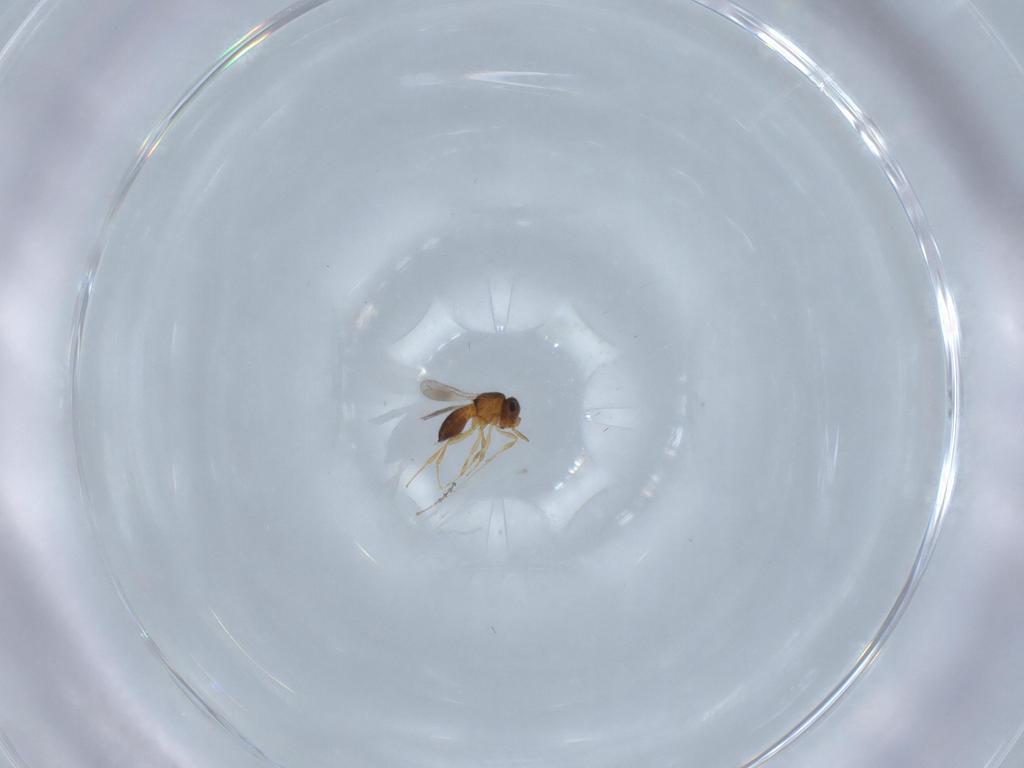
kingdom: Animalia
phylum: Arthropoda
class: Insecta
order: Hymenoptera
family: Scelionidae
